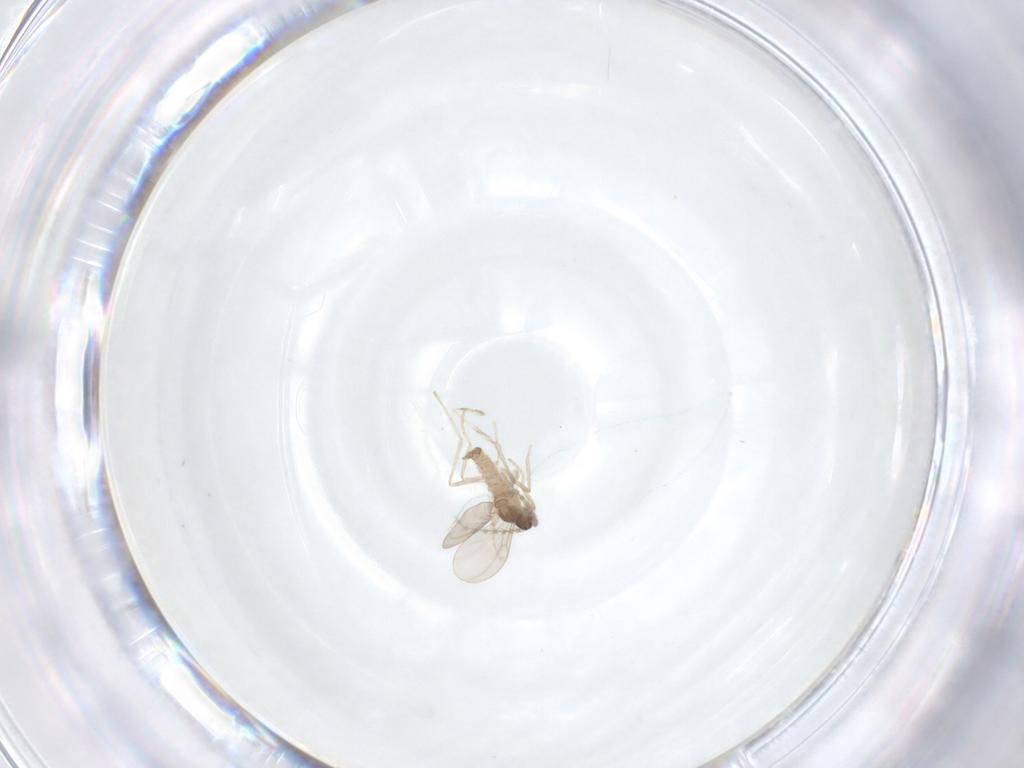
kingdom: Animalia
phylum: Arthropoda
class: Insecta
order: Diptera
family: Cecidomyiidae
